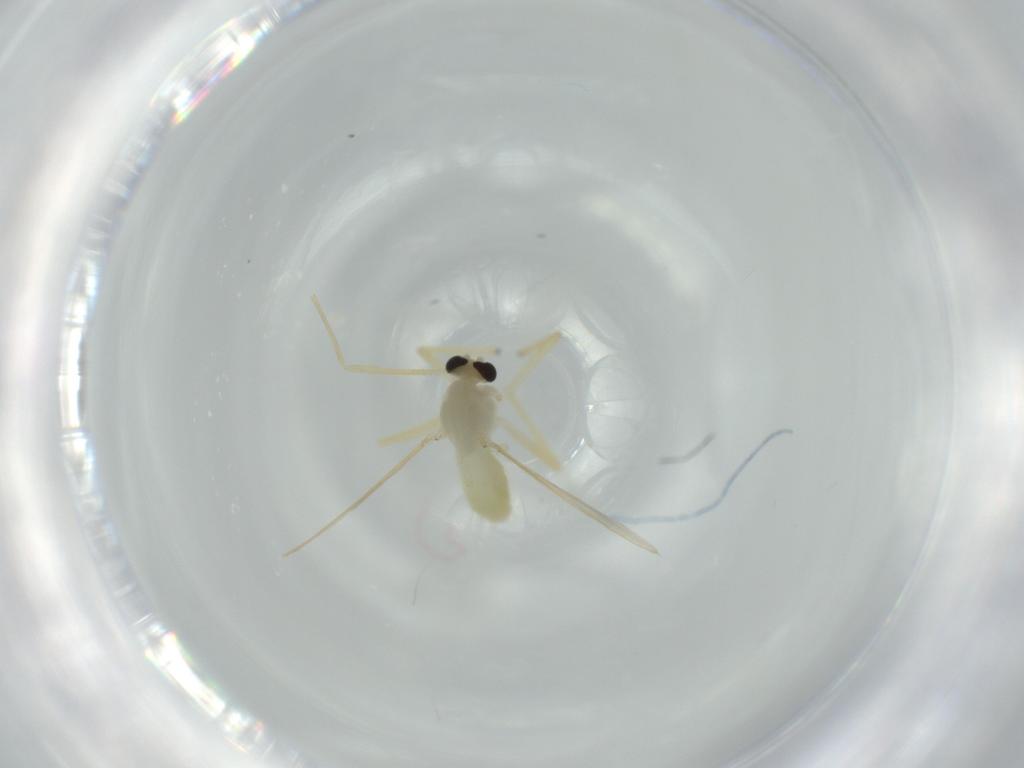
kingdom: Animalia
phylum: Arthropoda
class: Insecta
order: Diptera
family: Chironomidae
